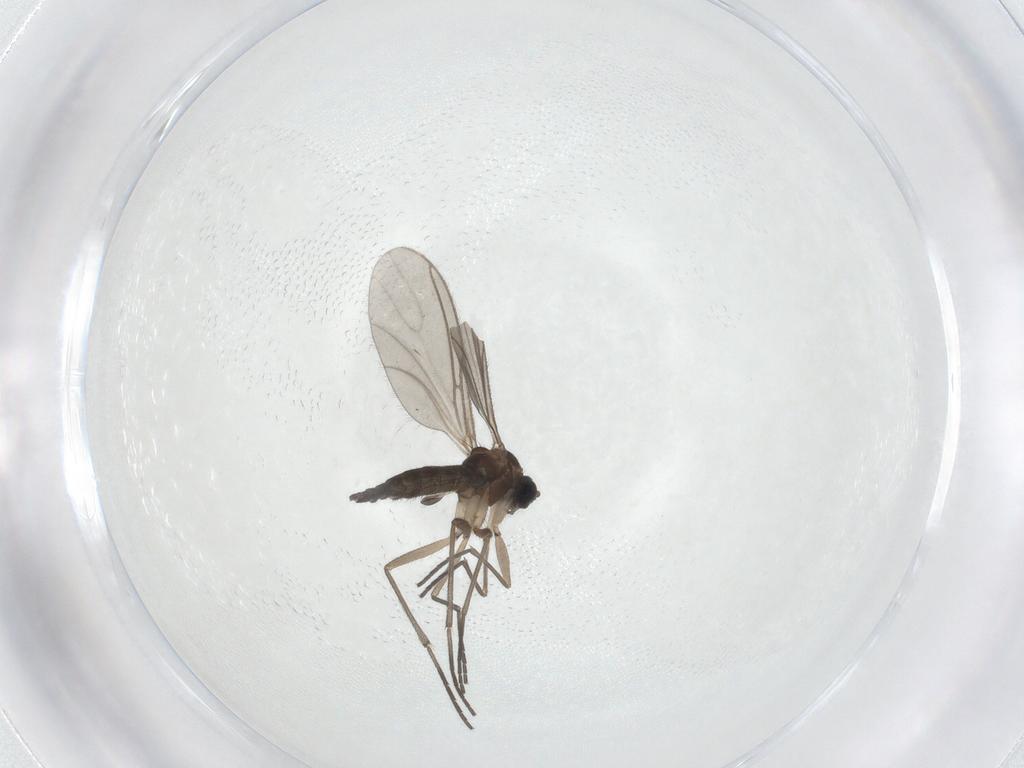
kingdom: Animalia
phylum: Arthropoda
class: Insecta
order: Diptera
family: Sciaridae
